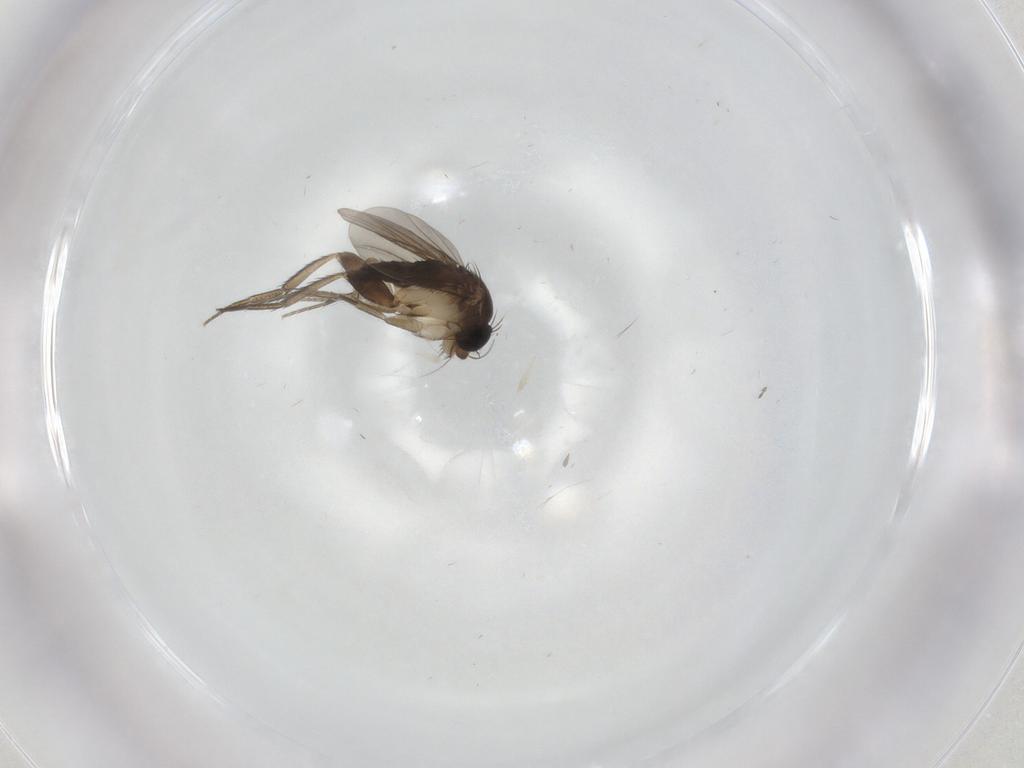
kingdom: Animalia
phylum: Arthropoda
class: Insecta
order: Diptera
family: Phoridae
